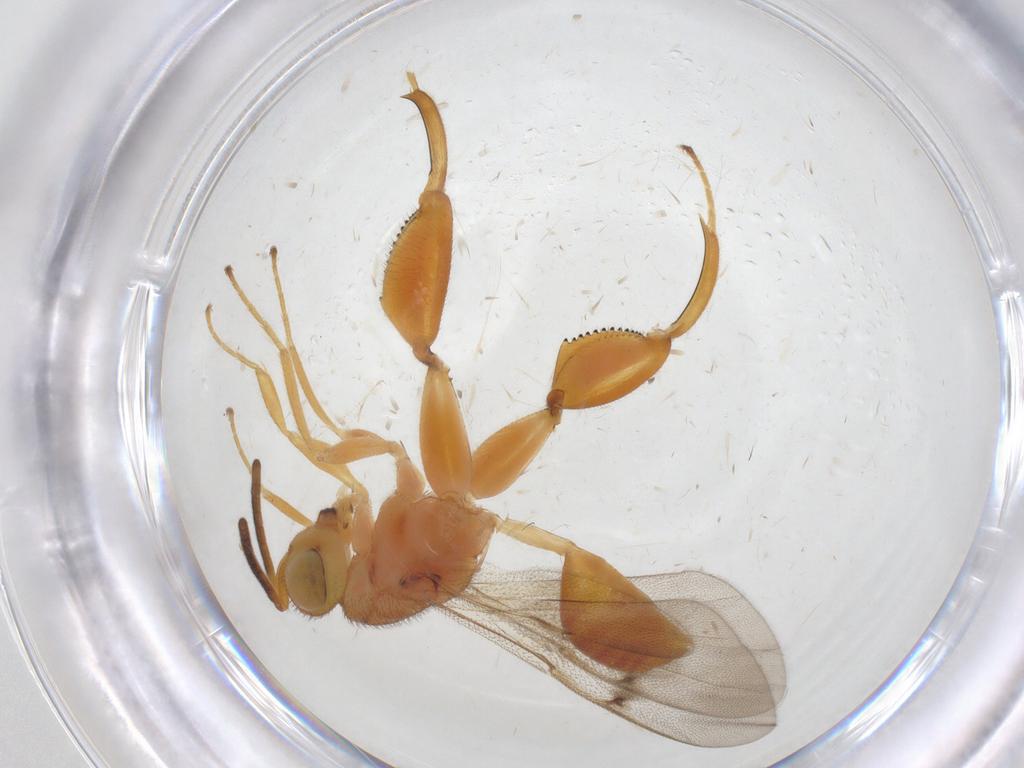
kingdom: Animalia
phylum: Arthropoda
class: Insecta
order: Hymenoptera
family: Chalcididae
